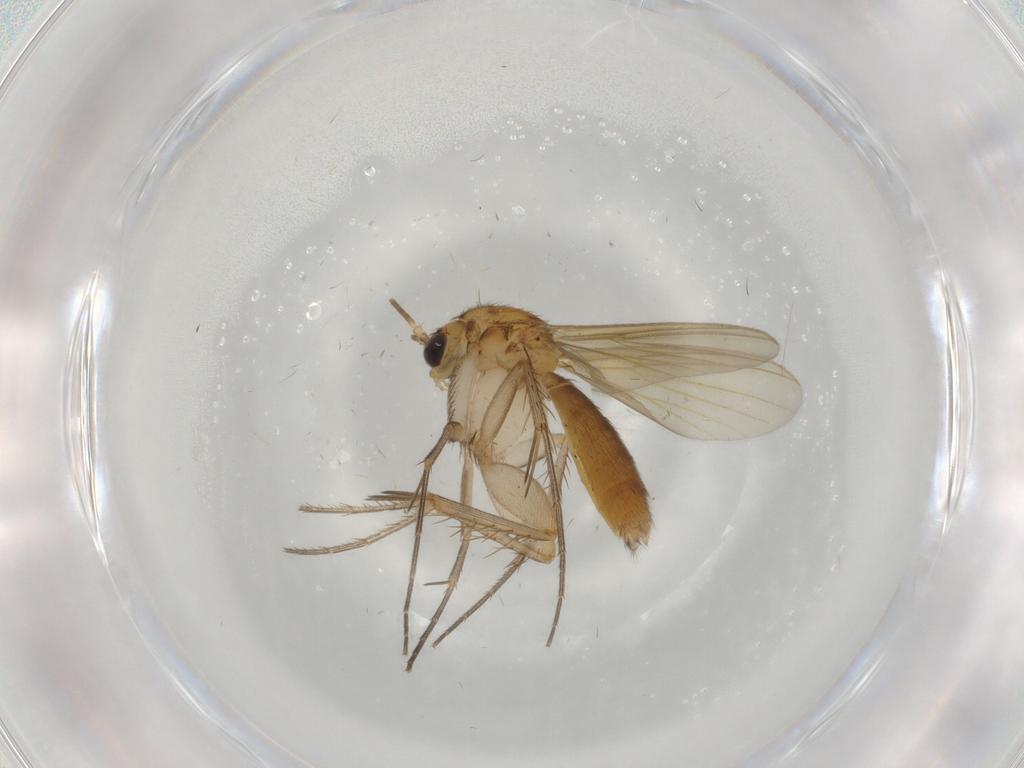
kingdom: Animalia
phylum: Arthropoda
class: Insecta
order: Diptera
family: Mycetophilidae
